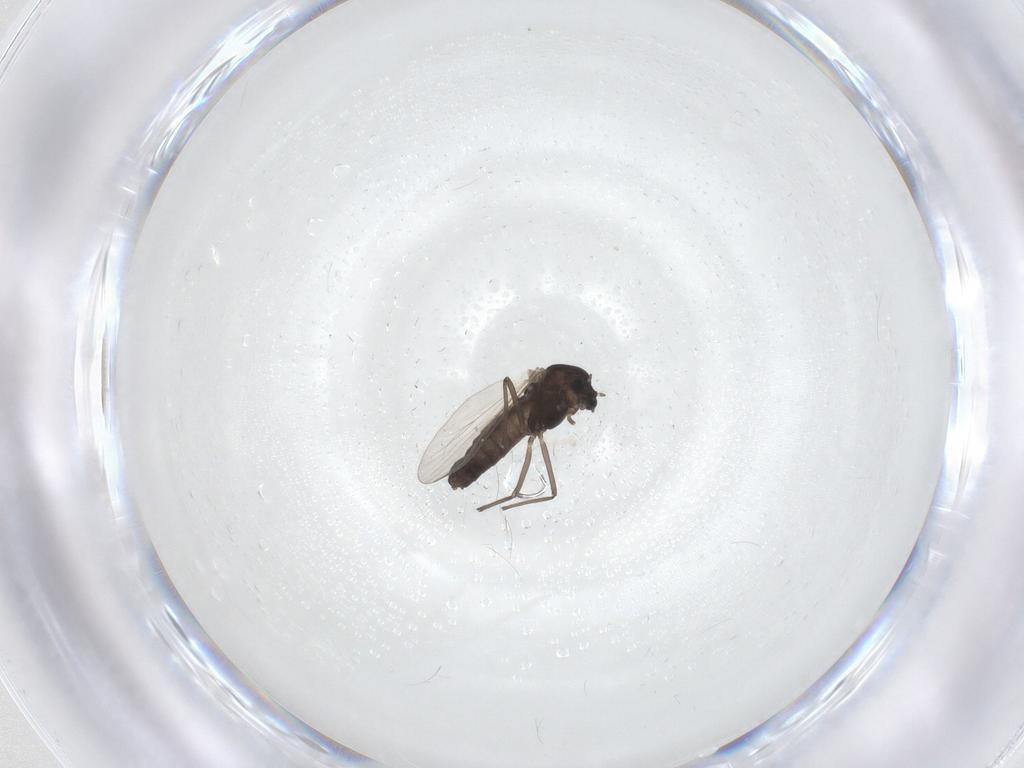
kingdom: Animalia
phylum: Arthropoda
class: Insecta
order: Diptera
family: Chironomidae
